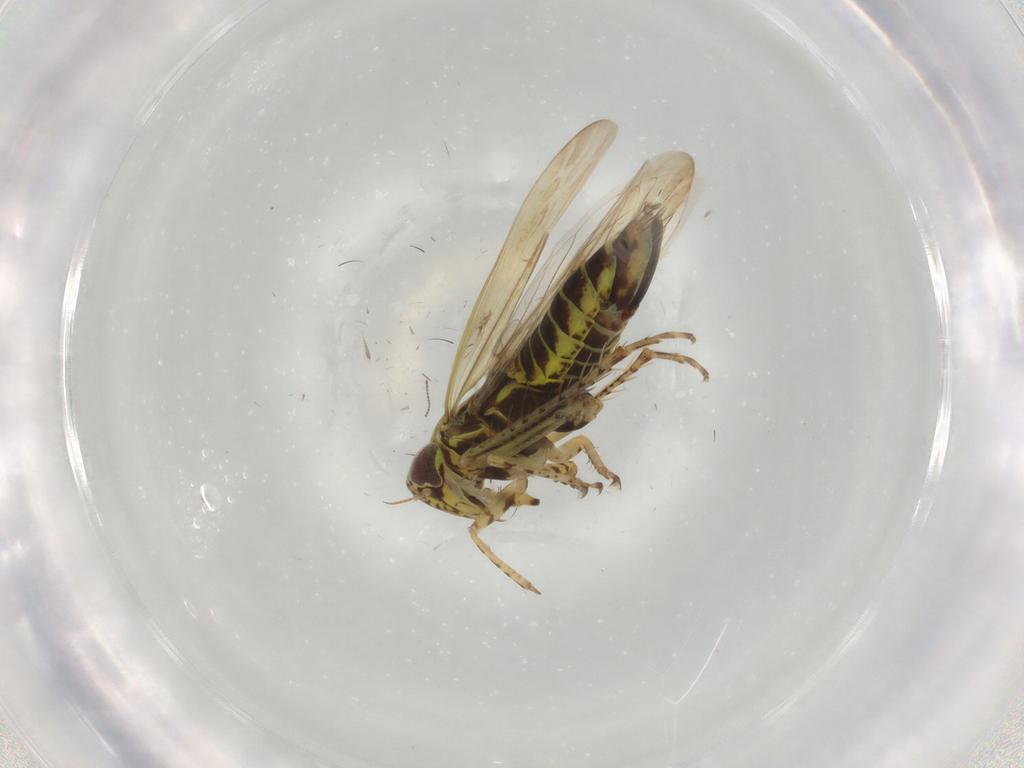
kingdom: Animalia
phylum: Arthropoda
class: Insecta
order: Hemiptera
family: Cicadellidae
